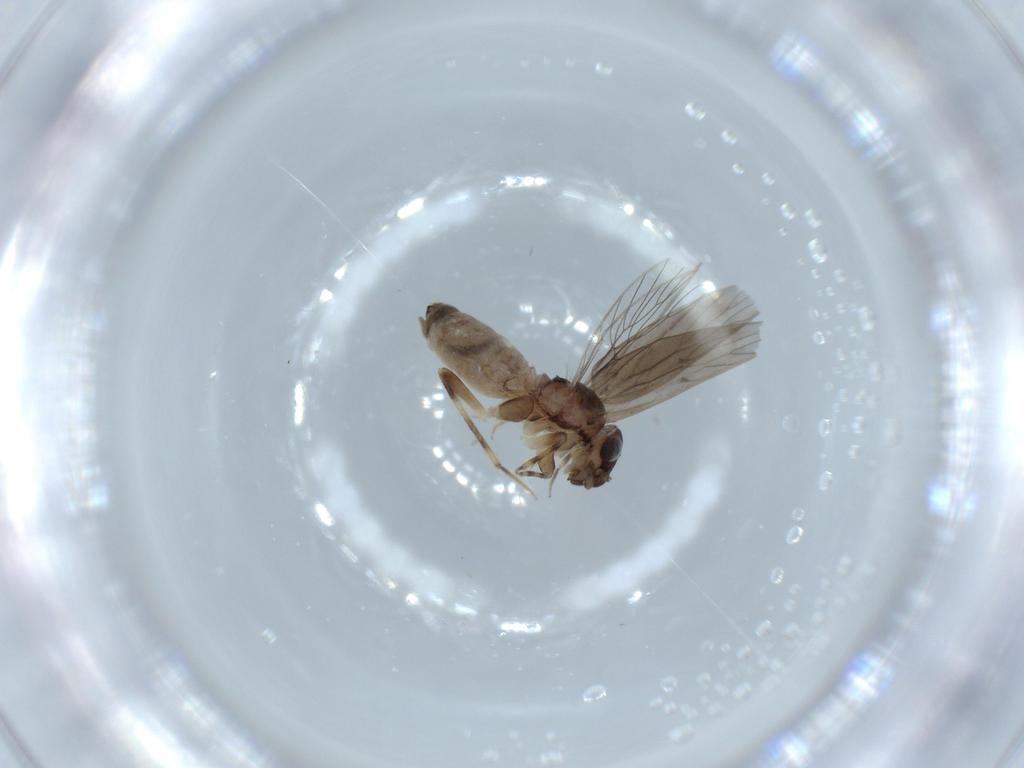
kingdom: Animalia
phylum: Arthropoda
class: Insecta
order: Psocodea
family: Lepidopsocidae
